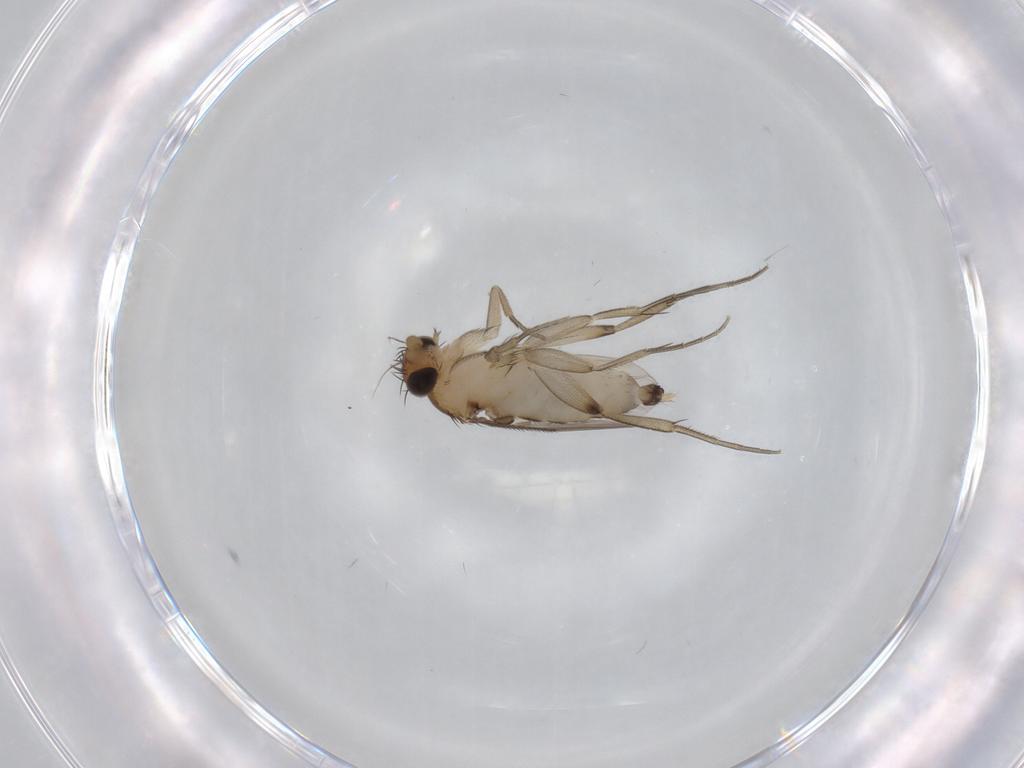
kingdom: Animalia
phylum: Arthropoda
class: Insecta
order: Diptera
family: Phoridae
